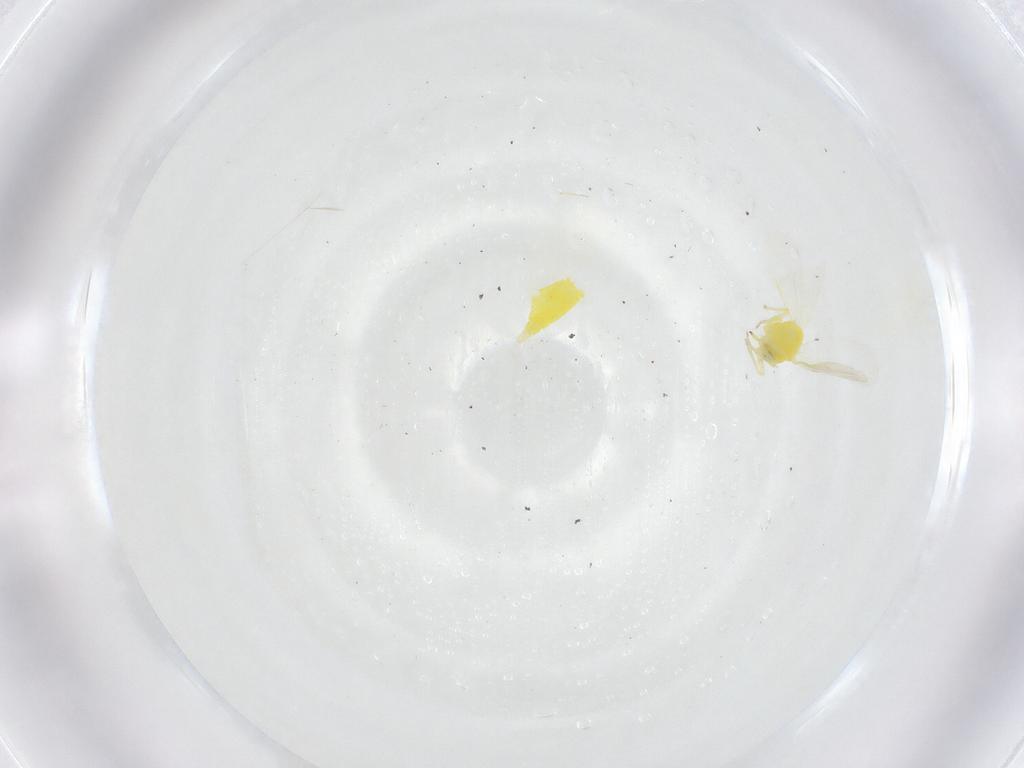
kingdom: Animalia
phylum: Arthropoda
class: Insecta
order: Hemiptera
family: Aleyrodidae
